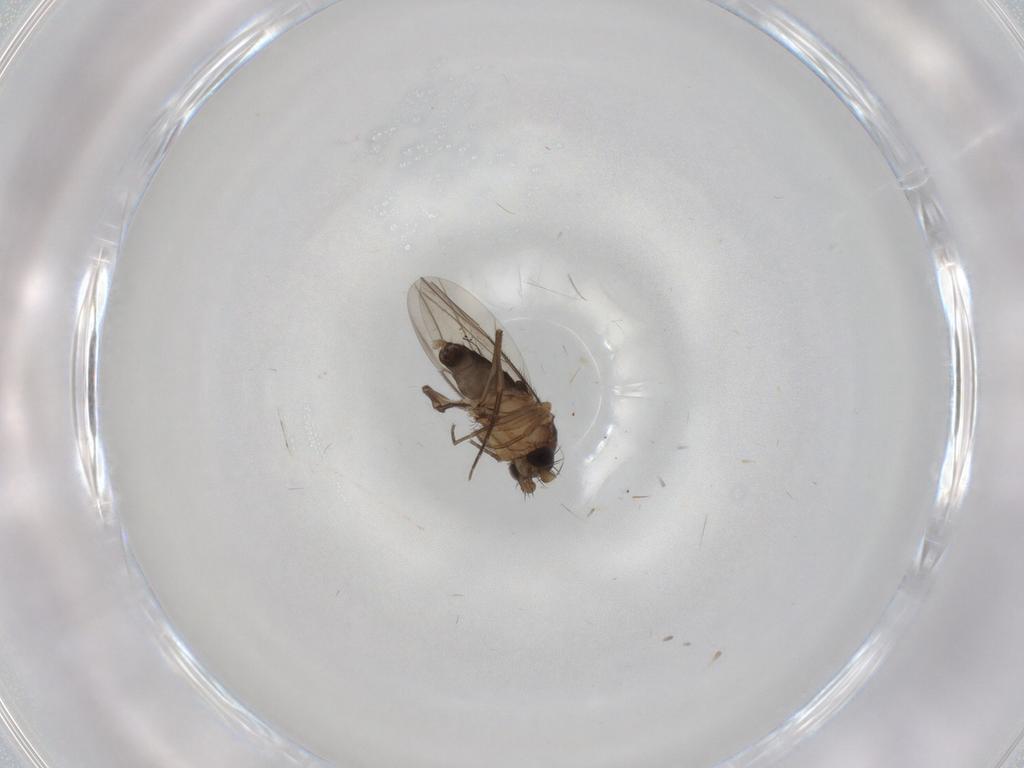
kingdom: Animalia
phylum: Arthropoda
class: Insecta
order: Diptera
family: Phoridae
